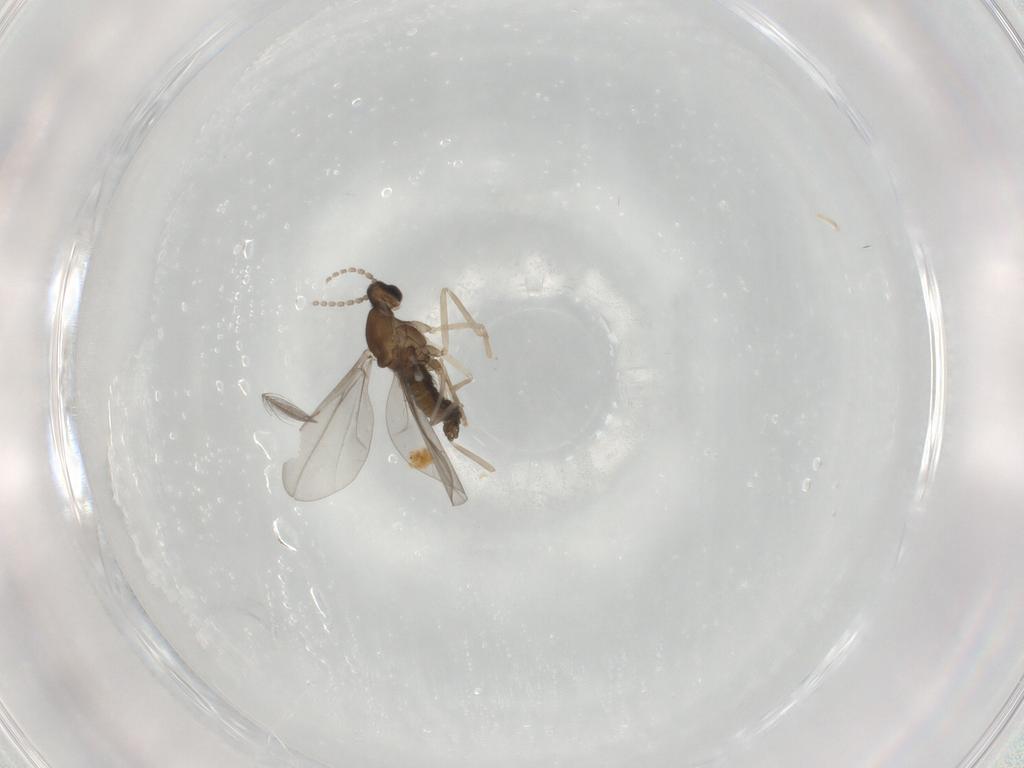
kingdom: Animalia
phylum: Arthropoda
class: Insecta
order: Diptera
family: Cecidomyiidae
